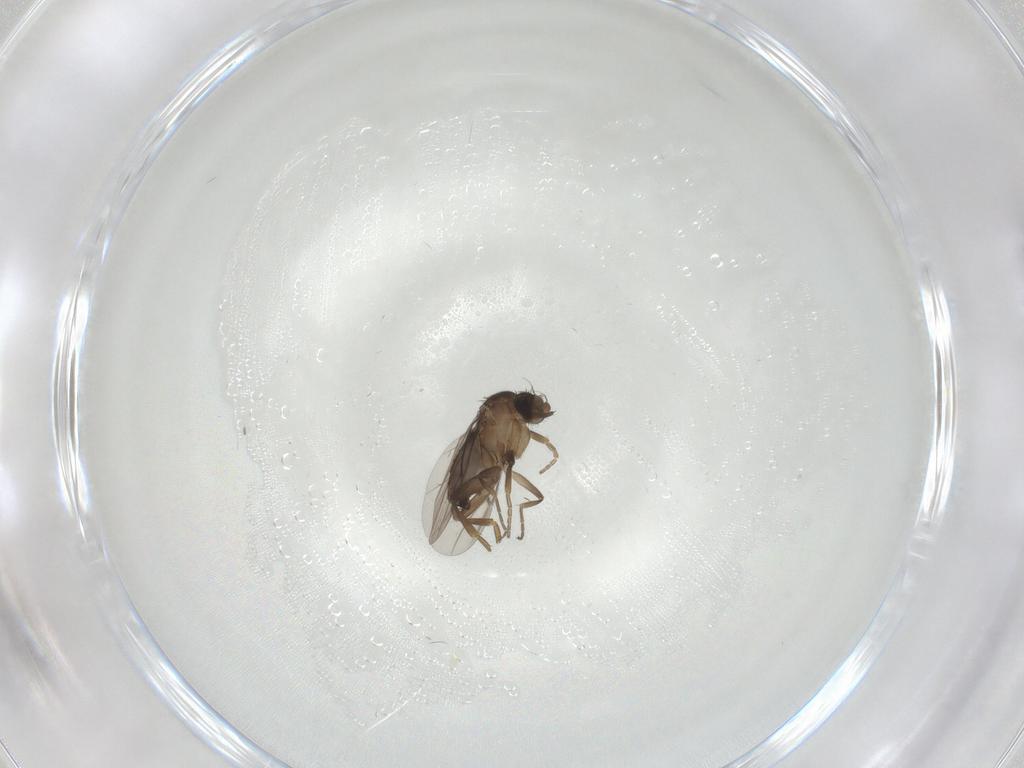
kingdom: Animalia
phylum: Arthropoda
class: Insecta
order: Diptera
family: Phoridae
